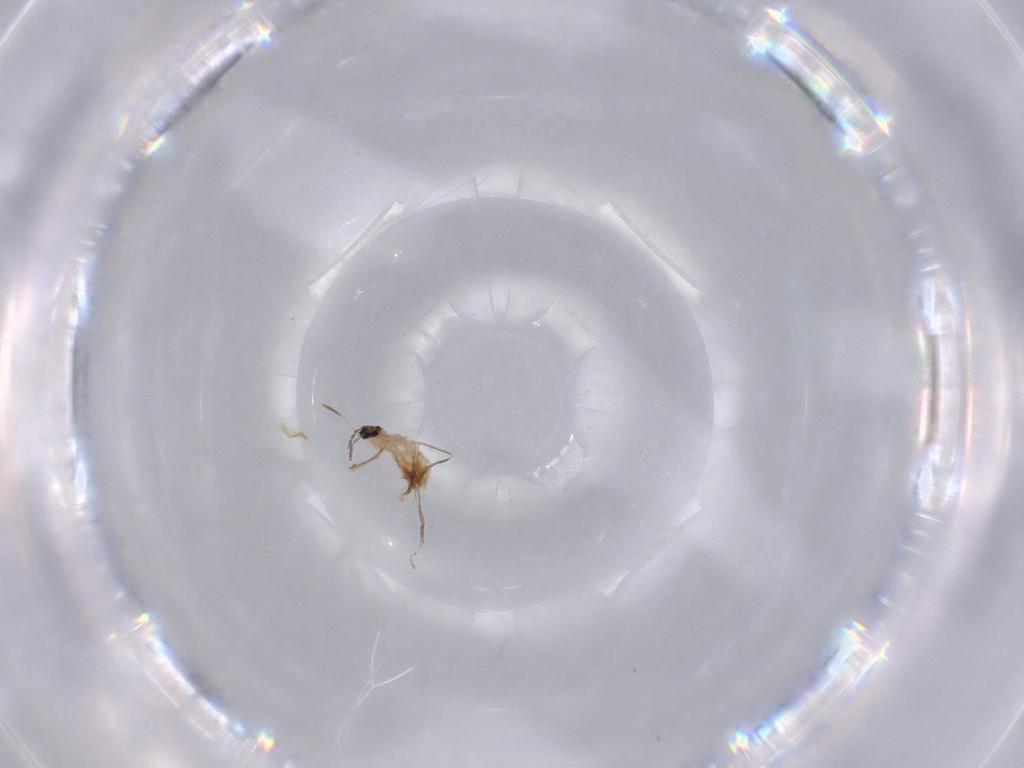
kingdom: Animalia
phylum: Arthropoda
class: Insecta
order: Diptera
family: Cecidomyiidae
